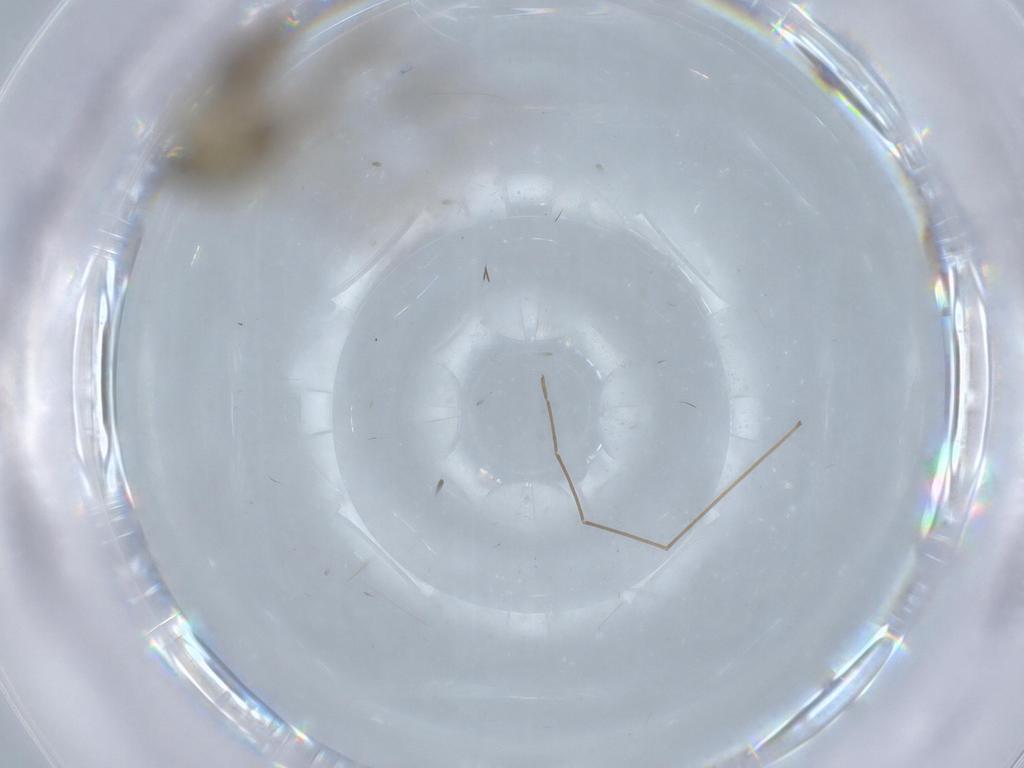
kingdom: Animalia
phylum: Arthropoda
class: Insecta
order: Diptera
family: Chironomidae
